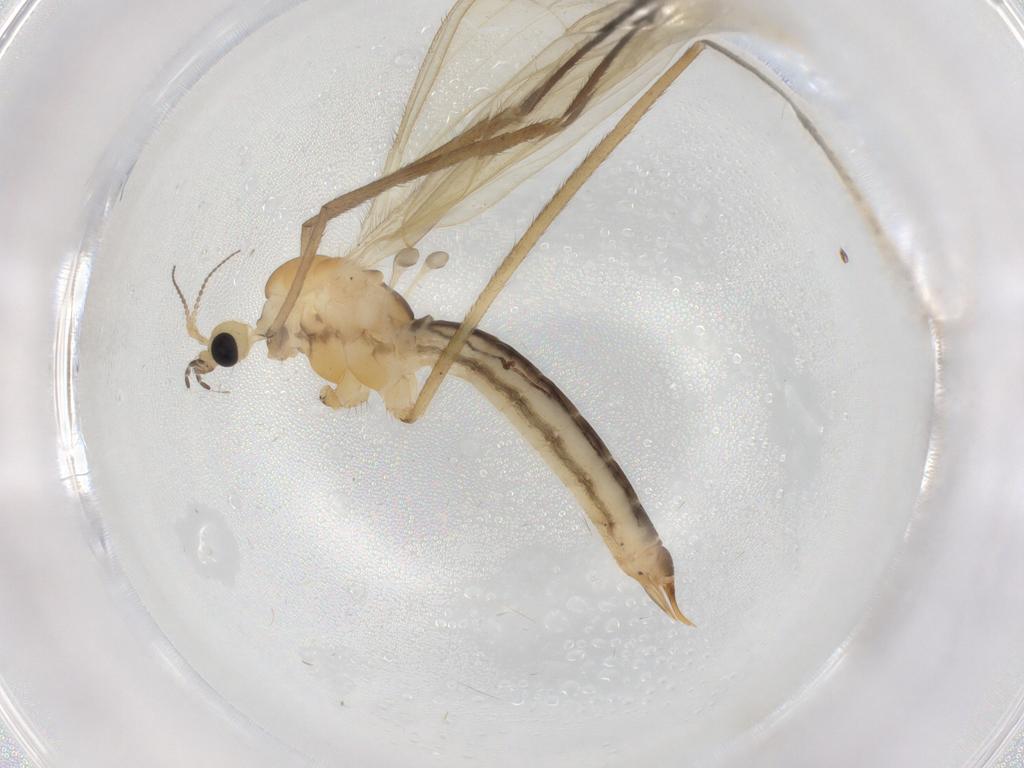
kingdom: Animalia
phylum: Arthropoda
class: Insecta
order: Diptera
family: Limoniidae
